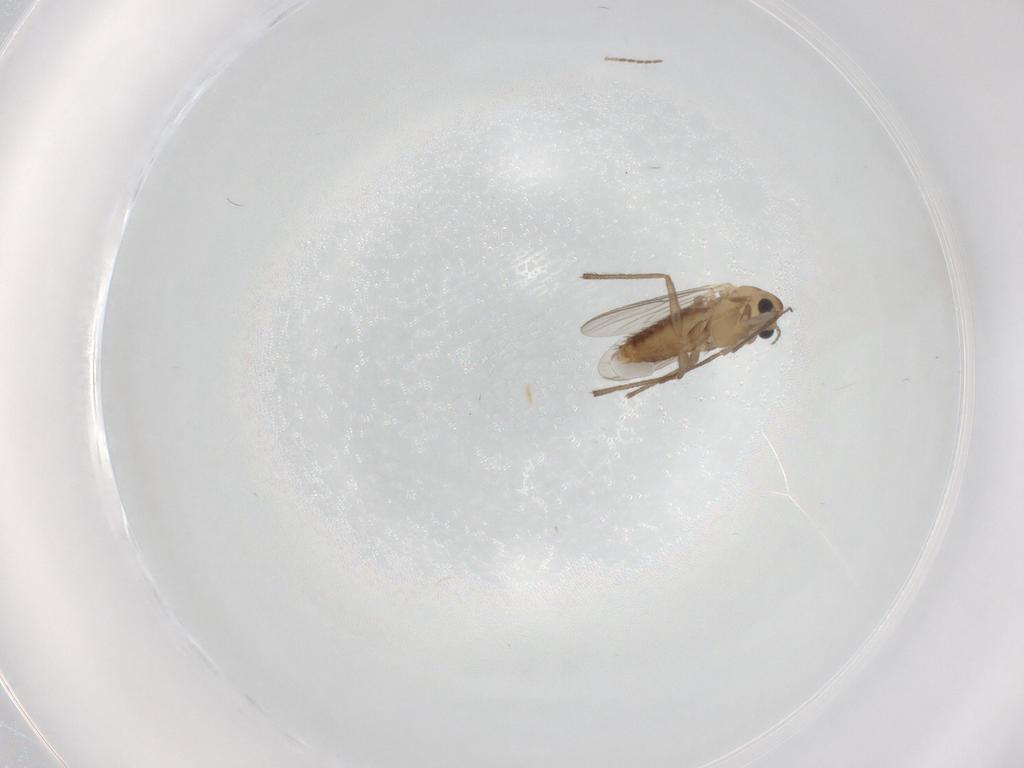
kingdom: Animalia
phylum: Arthropoda
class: Insecta
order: Diptera
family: Chironomidae
